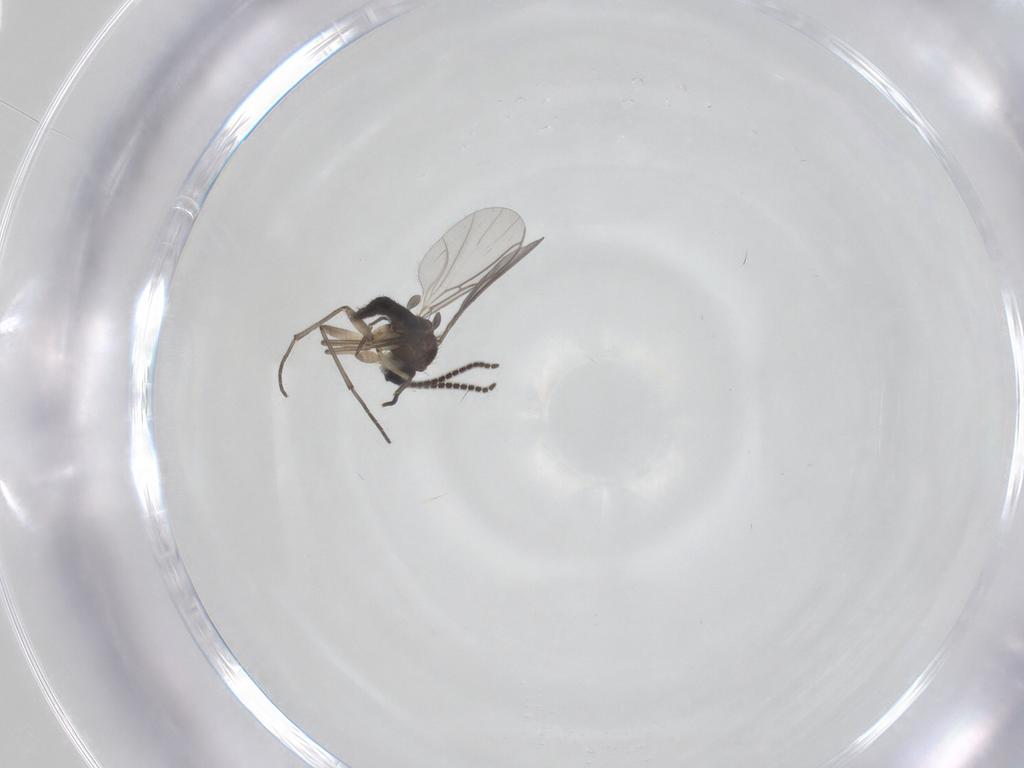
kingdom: Animalia
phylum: Arthropoda
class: Insecta
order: Diptera
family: Sciaridae
